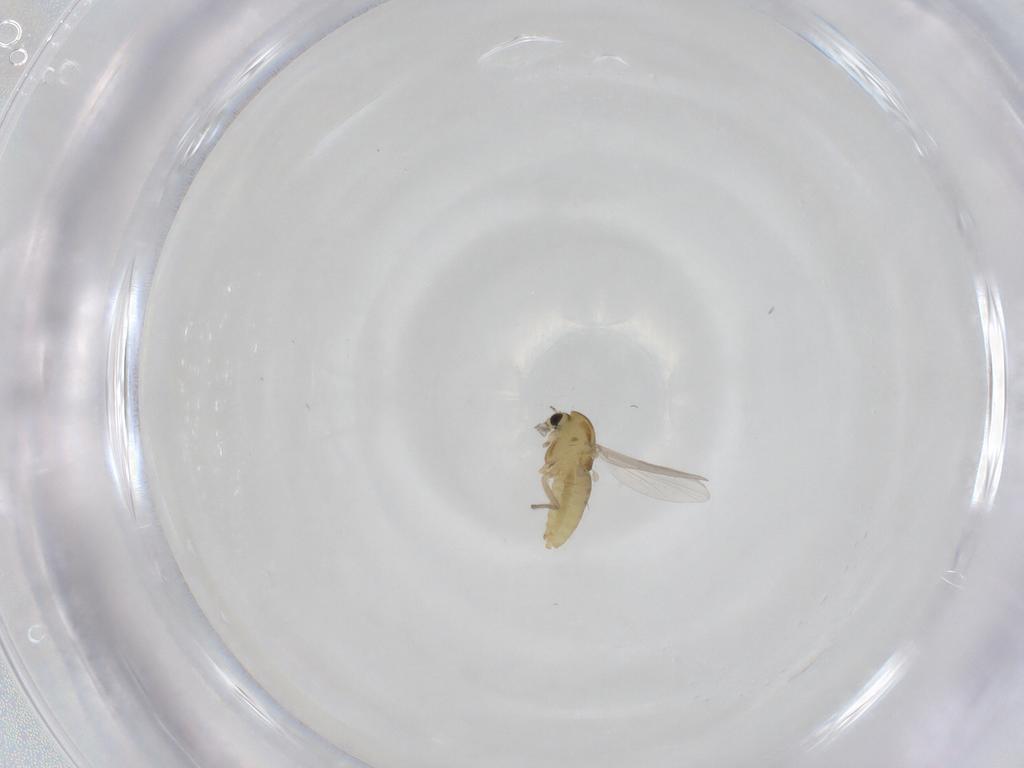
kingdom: Animalia
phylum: Arthropoda
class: Insecta
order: Diptera
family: Chironomidae
